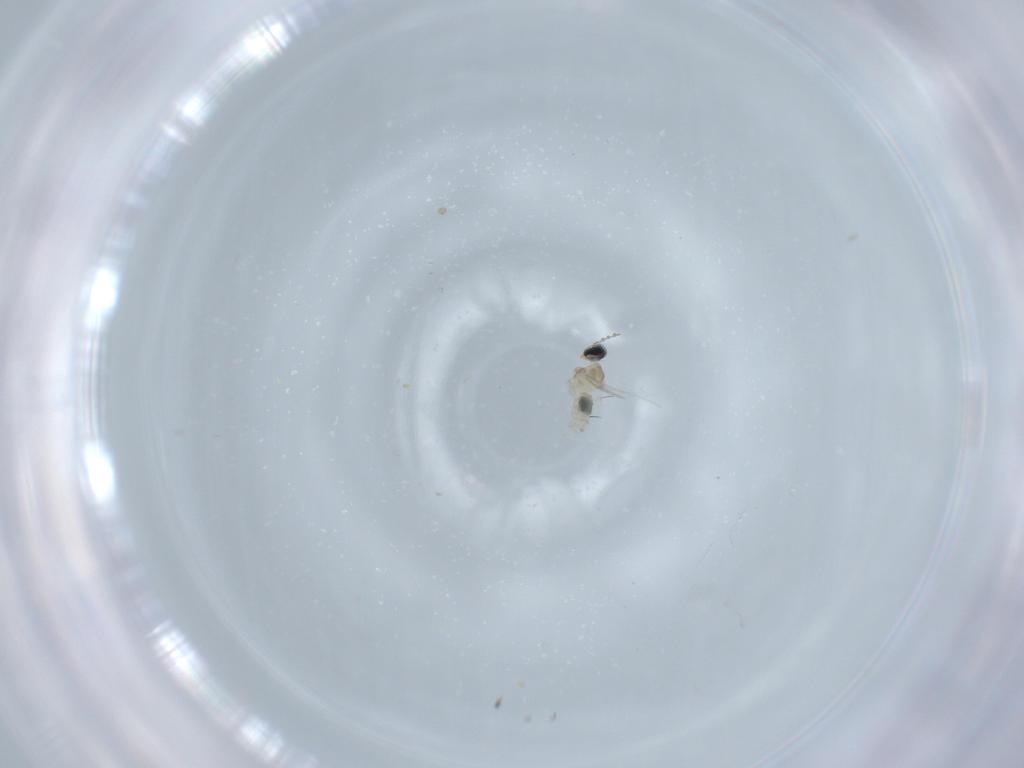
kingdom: Animalia
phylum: Arthropoda
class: Insecta
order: Diptera
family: Cecidomyiidae
